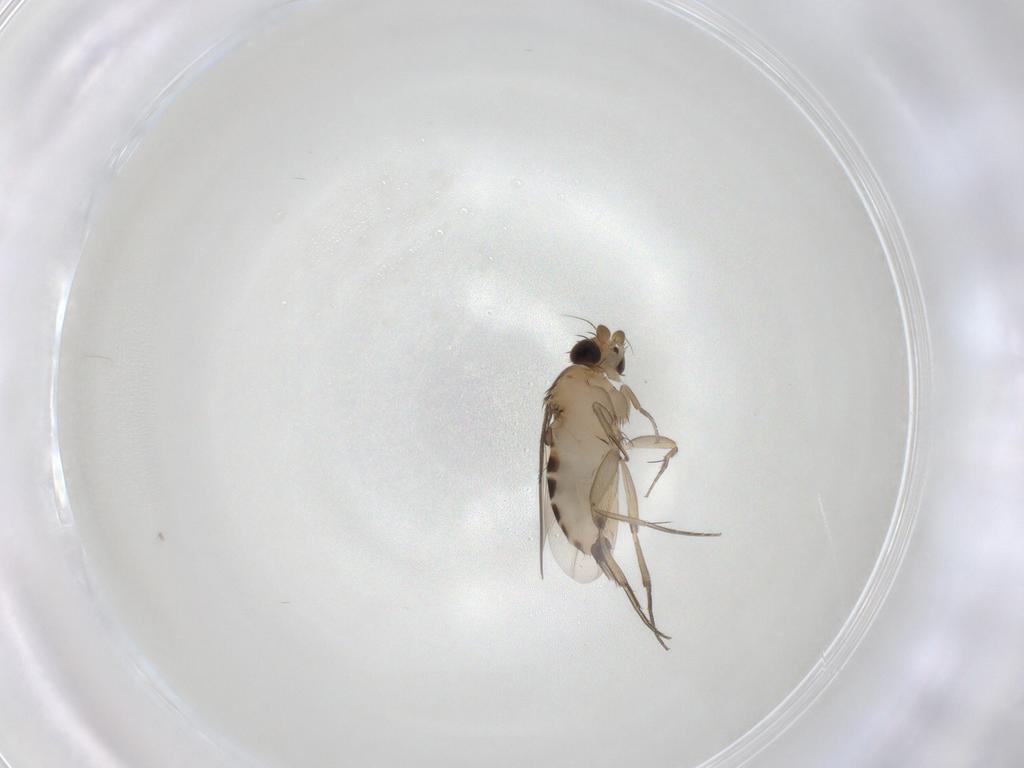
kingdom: Animalia
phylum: Arthropoda
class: Insecta
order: Diptera
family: Phoridae
